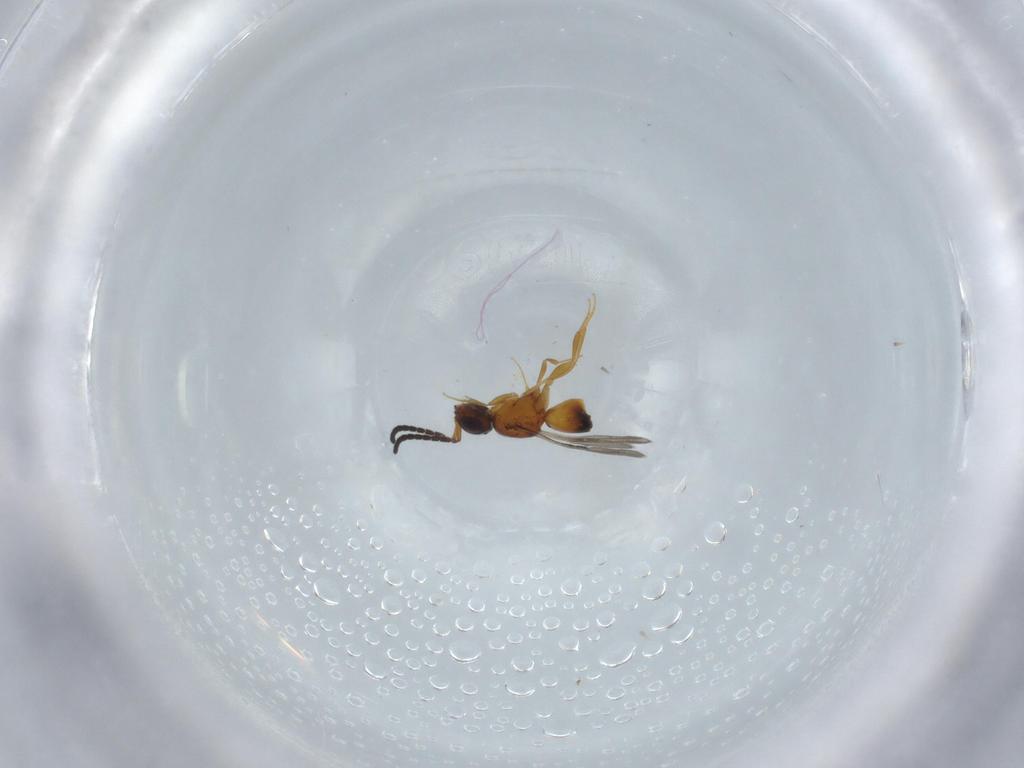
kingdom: Animalia
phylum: Arthropoda
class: Insecta
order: Hymenoptera
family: Ceraphronidae
